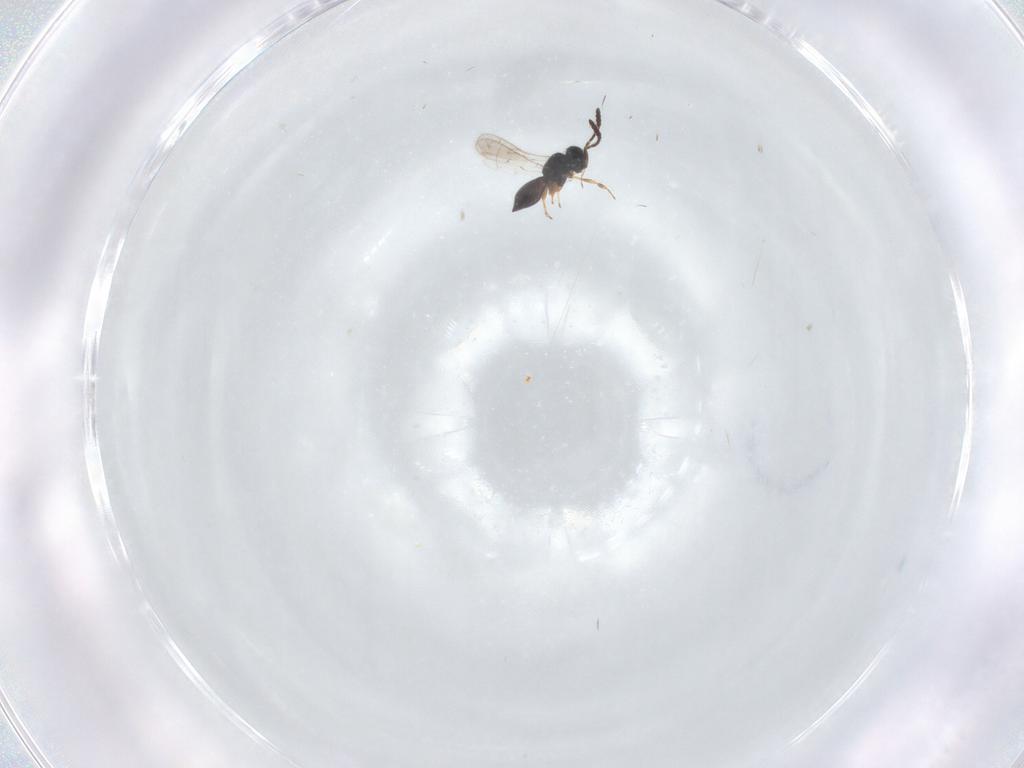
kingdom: Animalia
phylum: Arthropoda
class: Insecta
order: Hymenoptera
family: Scelionidae
